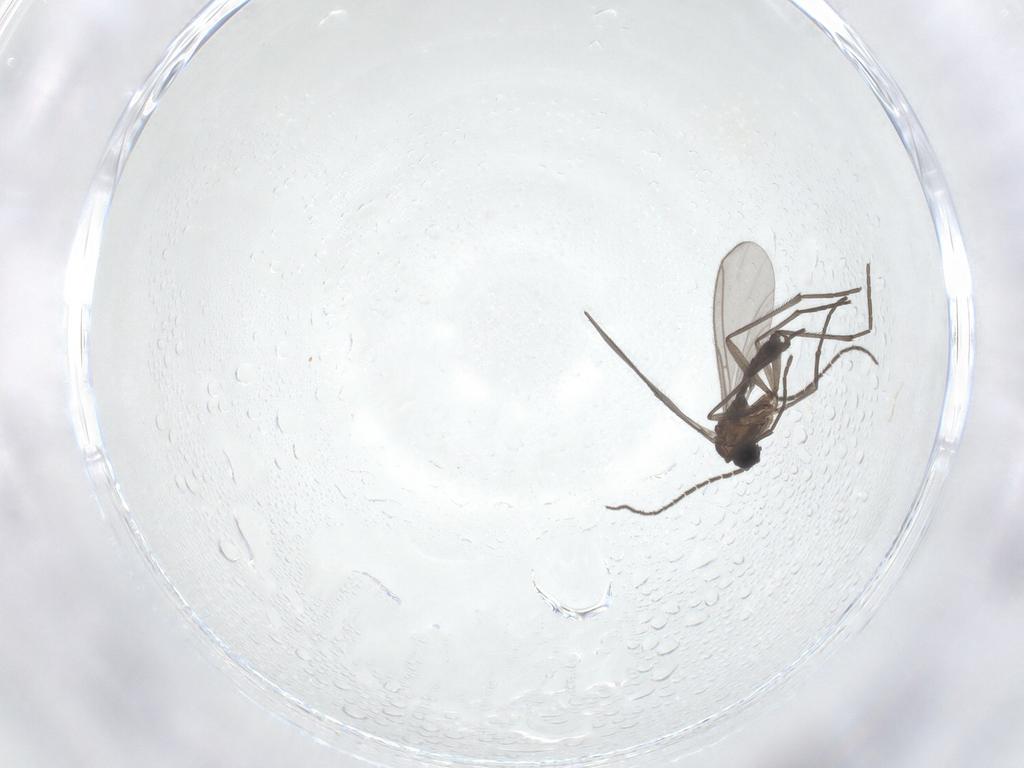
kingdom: Animalia
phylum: Arthropoda
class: Insecta
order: Diptera
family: Sciaridae
